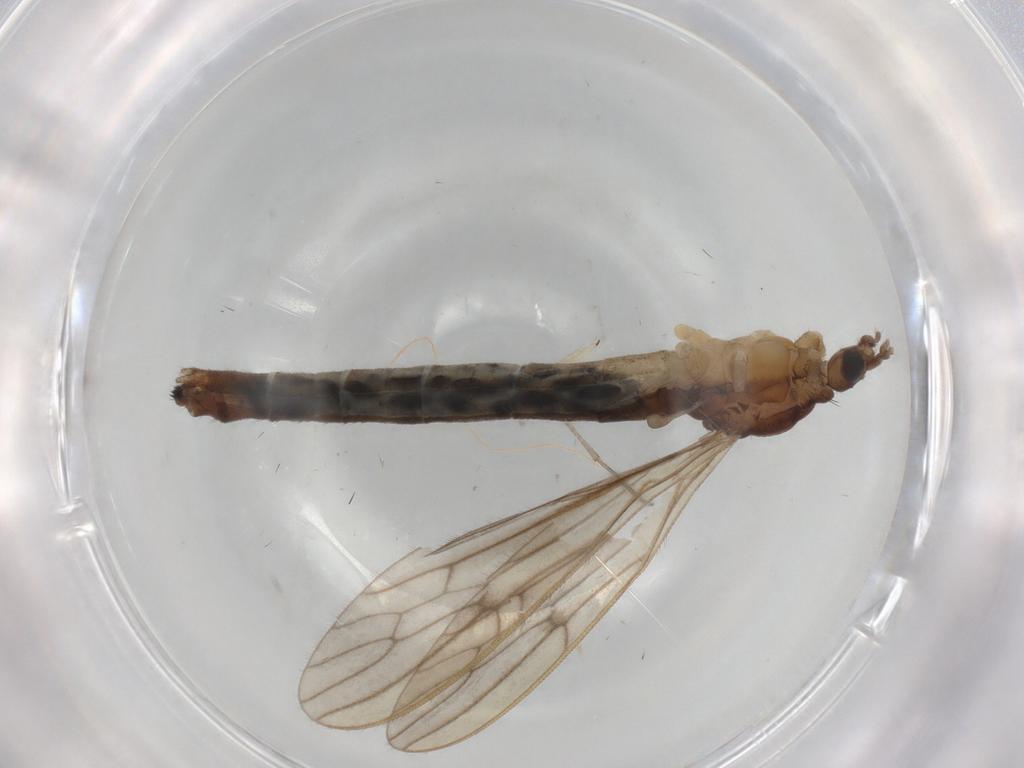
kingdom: Animalia
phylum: Arthropoda
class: Insecta
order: Diptera
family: Limoniidae
